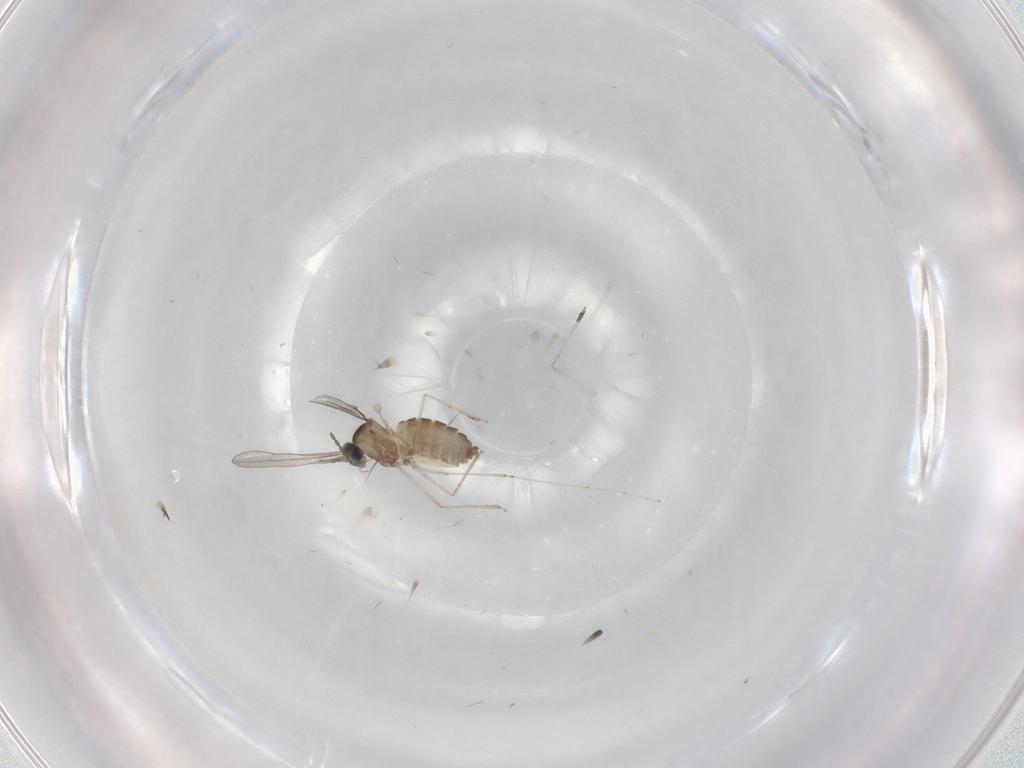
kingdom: Animalia
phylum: Arthropoda
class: Insecta
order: Diptera
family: Cecidomyiidae
